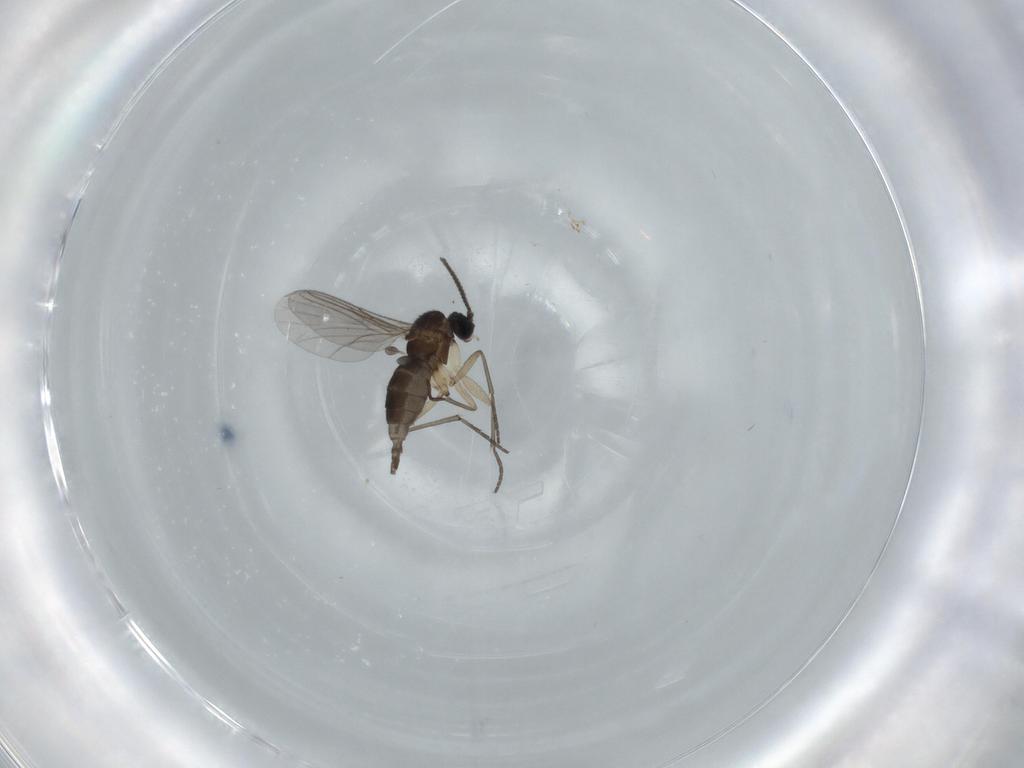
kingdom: Animalia
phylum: Arthropoda
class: Insecta
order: Diptera
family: Sciaridae
